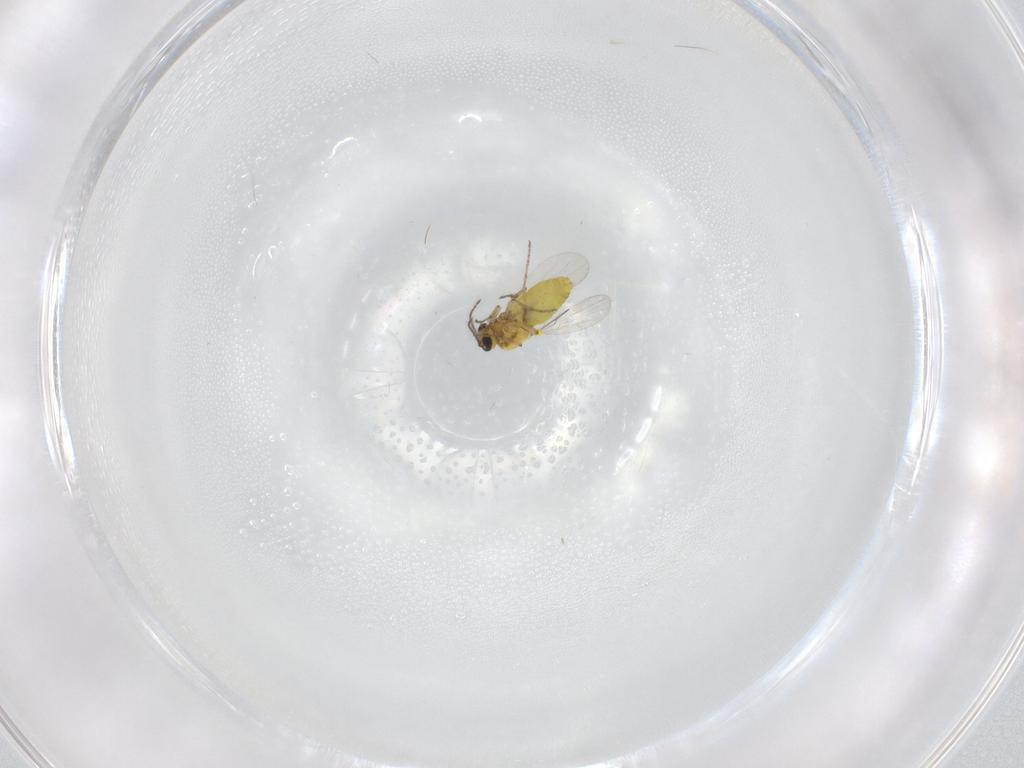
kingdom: Animalia
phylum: Arthropoda
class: Insecta
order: Diptera
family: Ceratopogonidae
